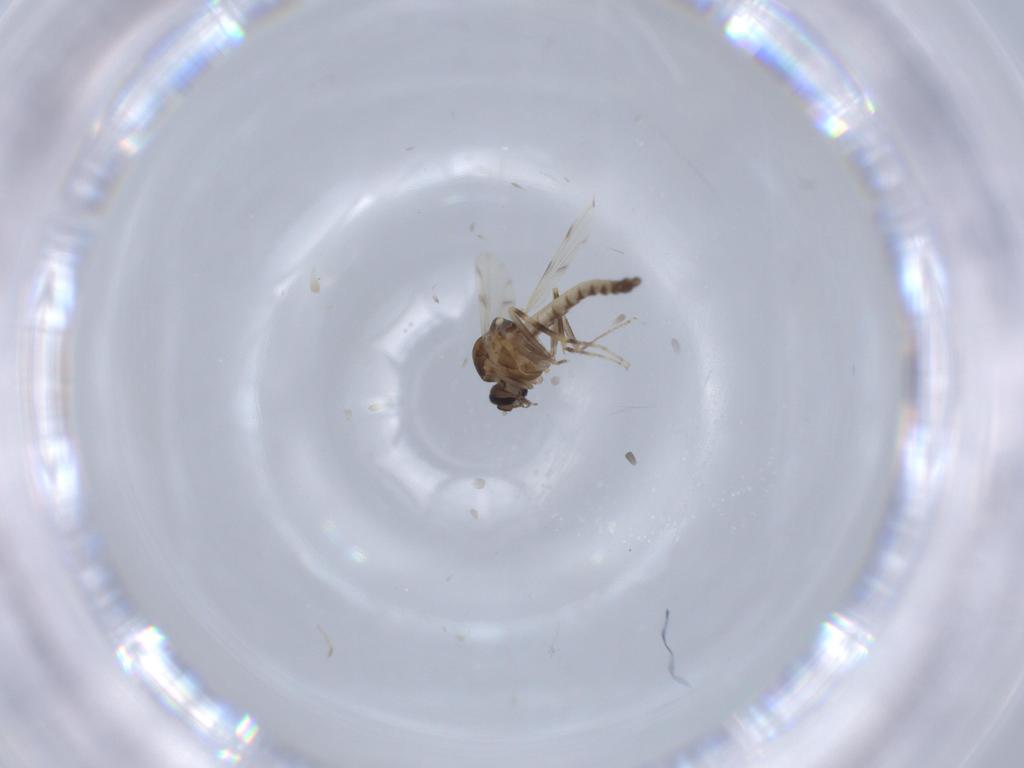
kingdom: Animalia
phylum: Arthropoda
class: Insecta
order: Diptera
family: Ceratopogonidae
